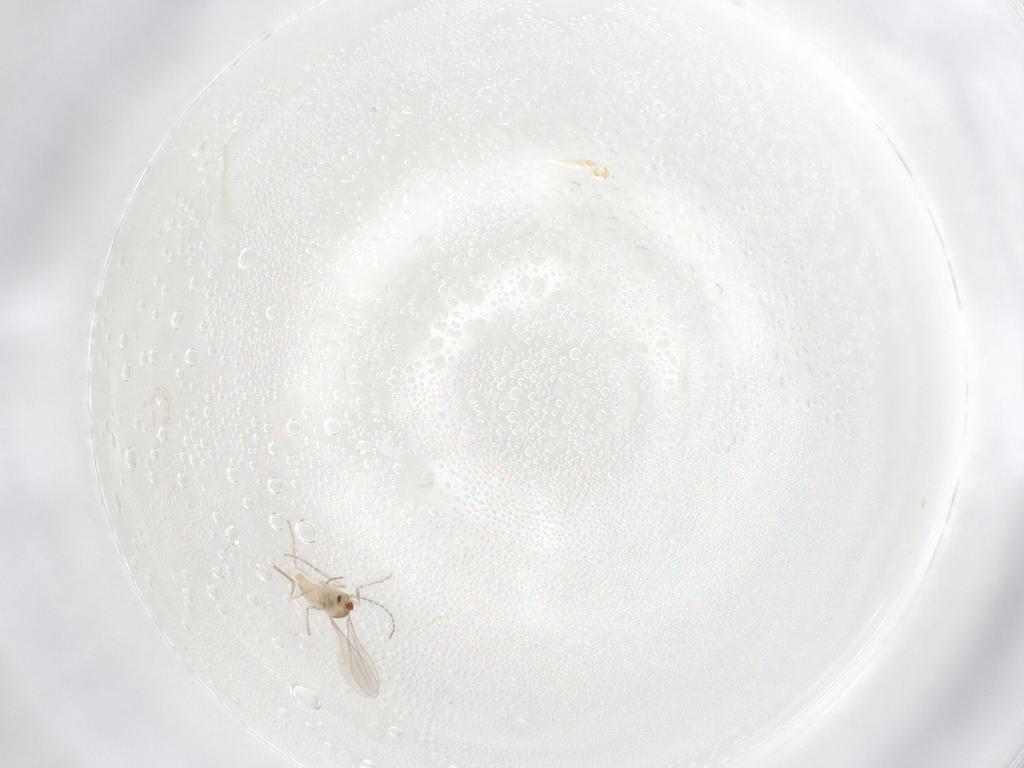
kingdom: Animalia
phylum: Arthropoda
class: Insecta
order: Diptera
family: Cecidomyiidae
